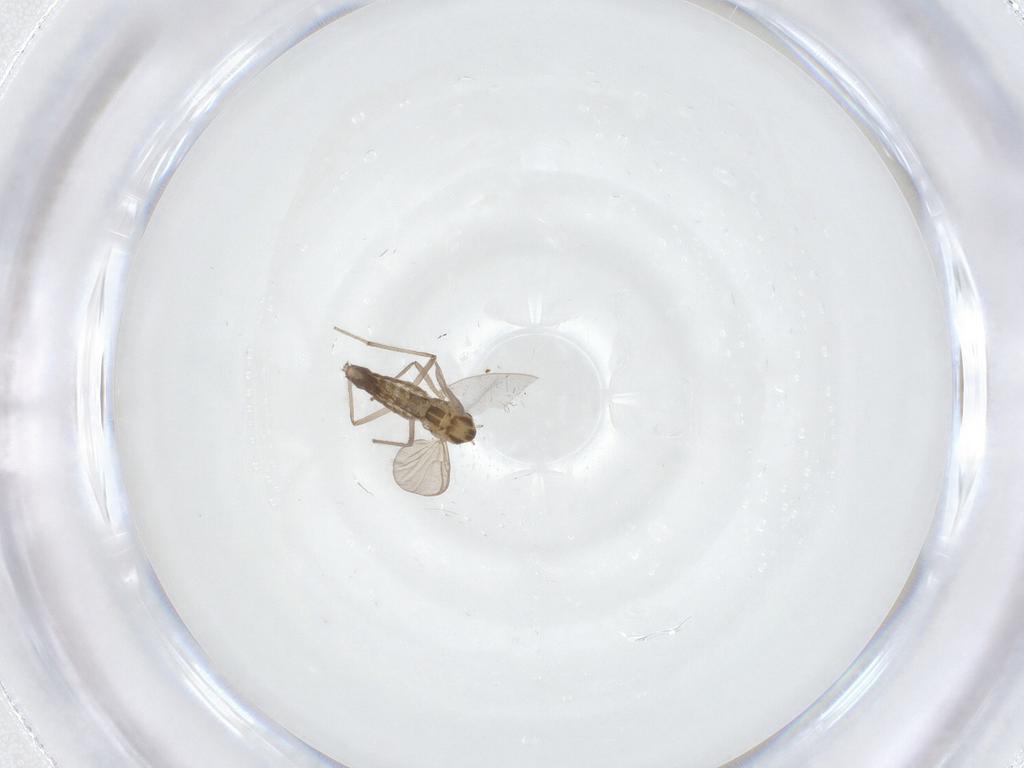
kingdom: Animalia
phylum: Arthropoda
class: Insecta
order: Diptera
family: Chironomidae
